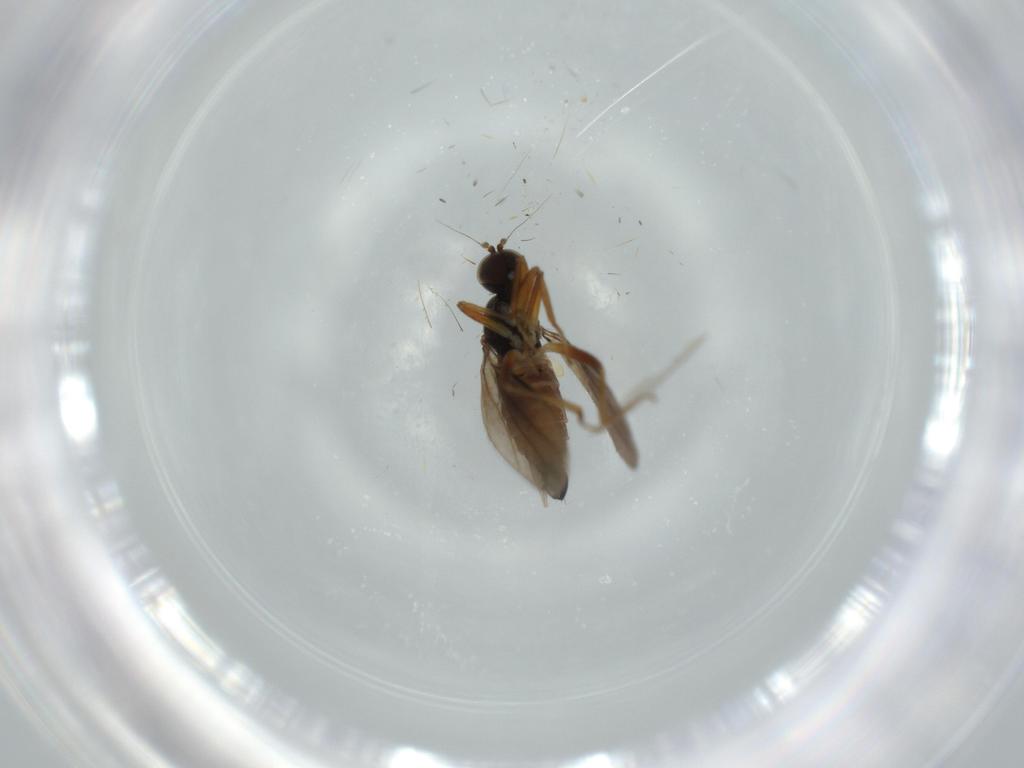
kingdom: Animalia
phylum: Arthropoda
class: Insecta
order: Diptera
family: Hybotidae
